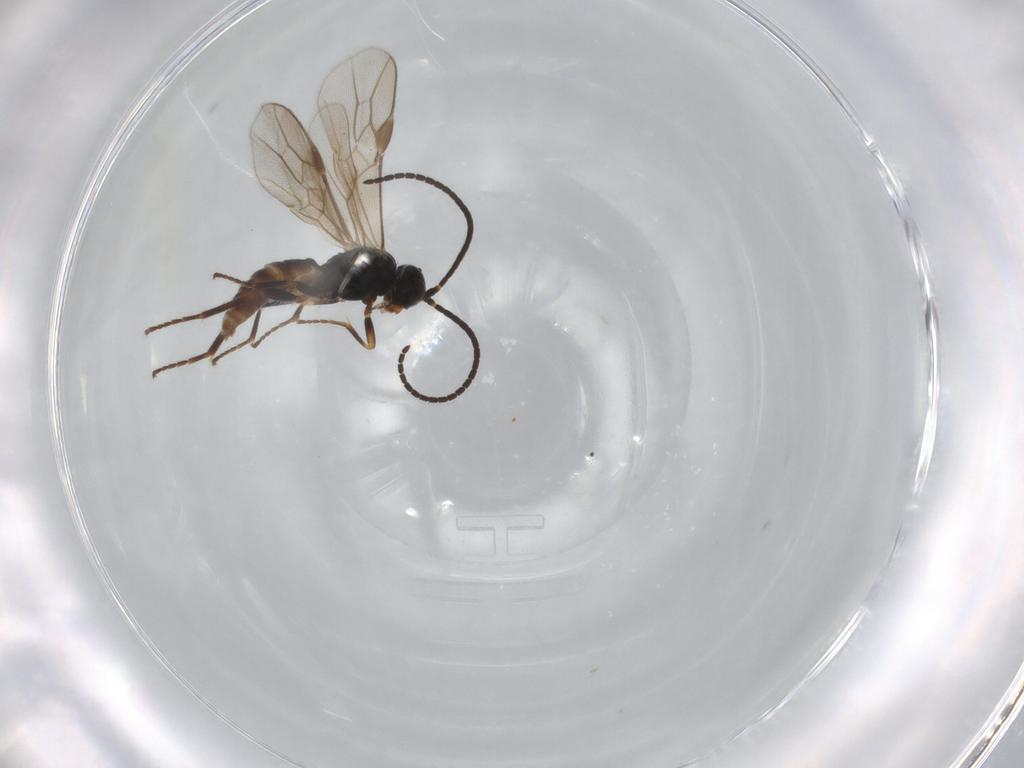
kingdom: Animalia
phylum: Arthropoda
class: Insecta
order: Hymenoptera
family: Braconidae
